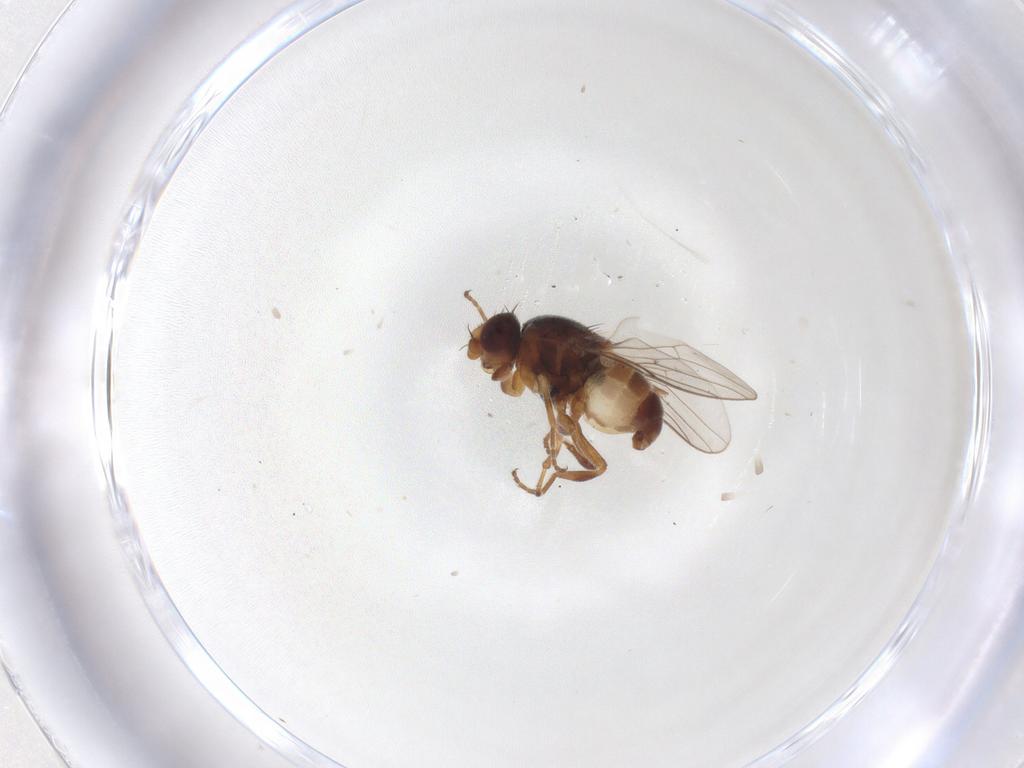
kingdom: Animalia
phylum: Arthropoda
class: Insecta
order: Diptera
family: Chloropidae
